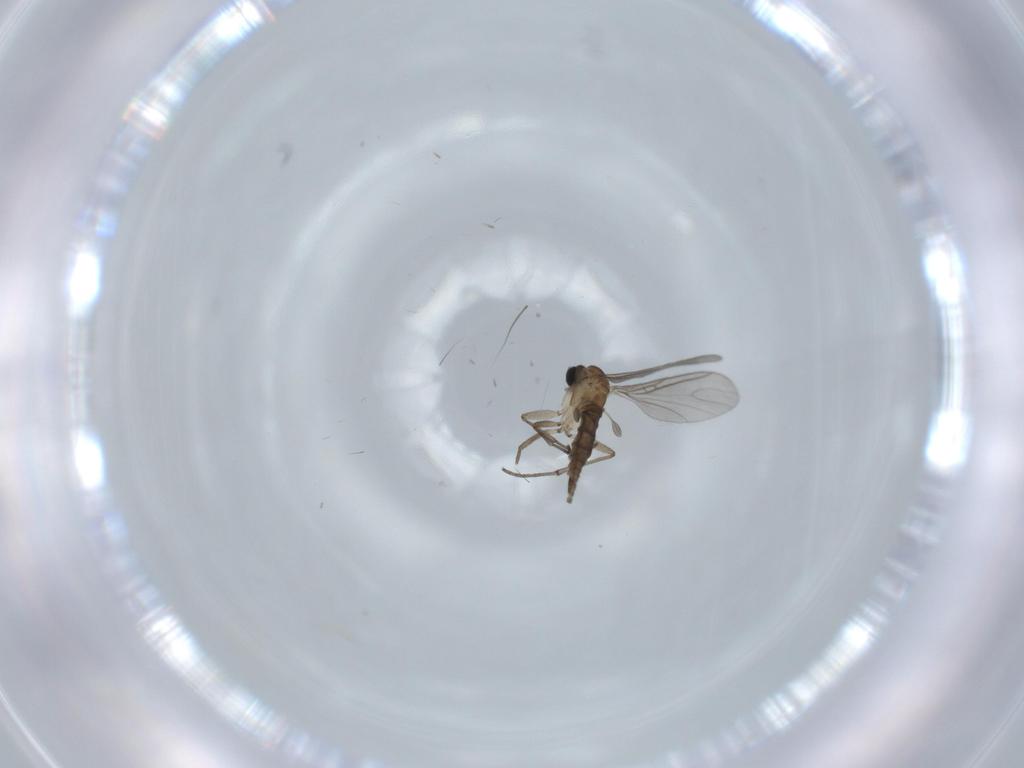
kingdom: Animalia
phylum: Arthropoda
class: Insecta
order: Diptera
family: Sciaridae
